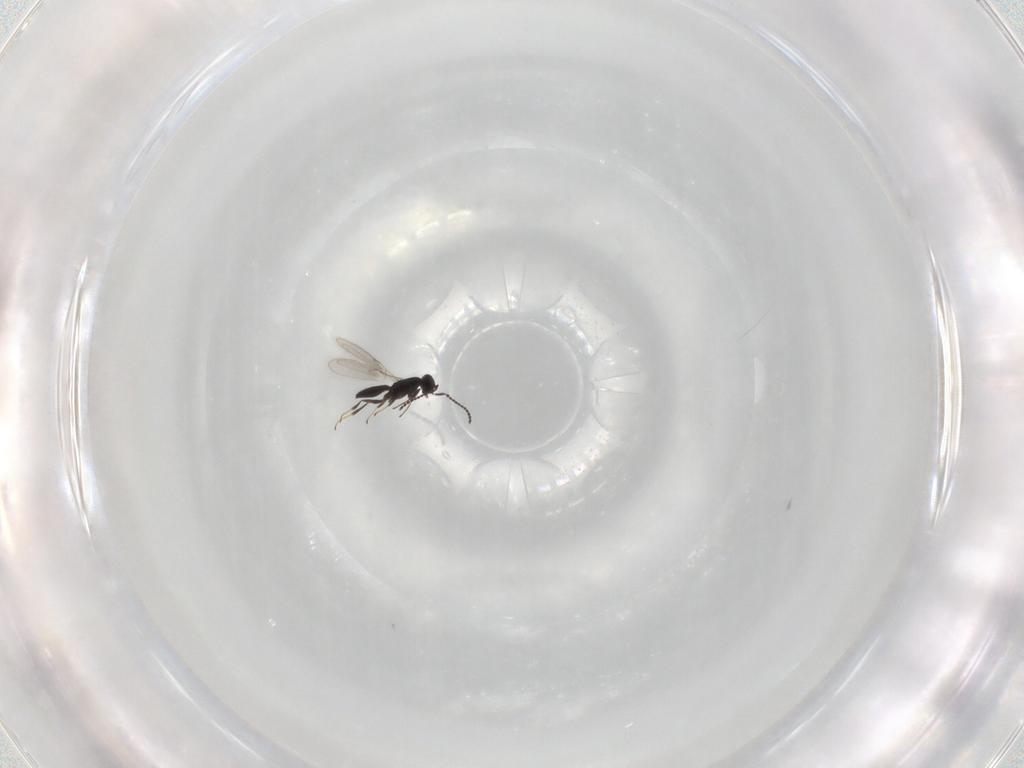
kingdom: Animalia
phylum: Arthropoda
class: Insecta
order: Hymenoptera
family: Scelionidae
